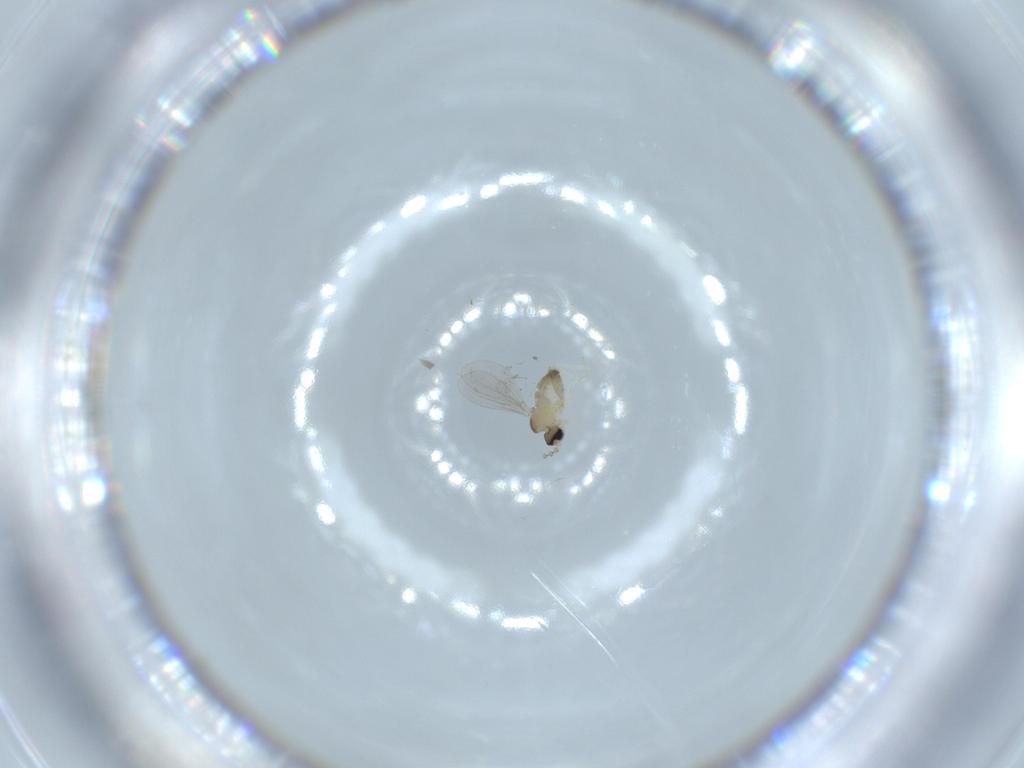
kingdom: Animalia
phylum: Arthropoda
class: Insecta
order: Diptera
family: Cecidomyiidae
